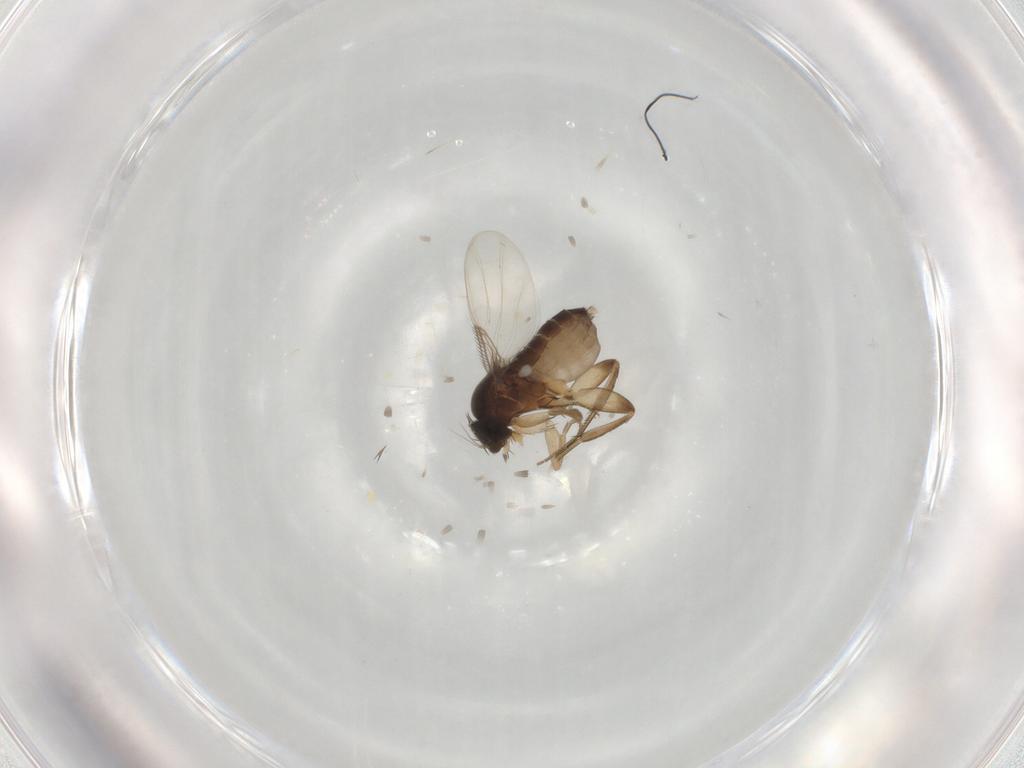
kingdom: Animalia
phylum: Arthropoda
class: Insecta
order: Diptera
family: Phoridae
